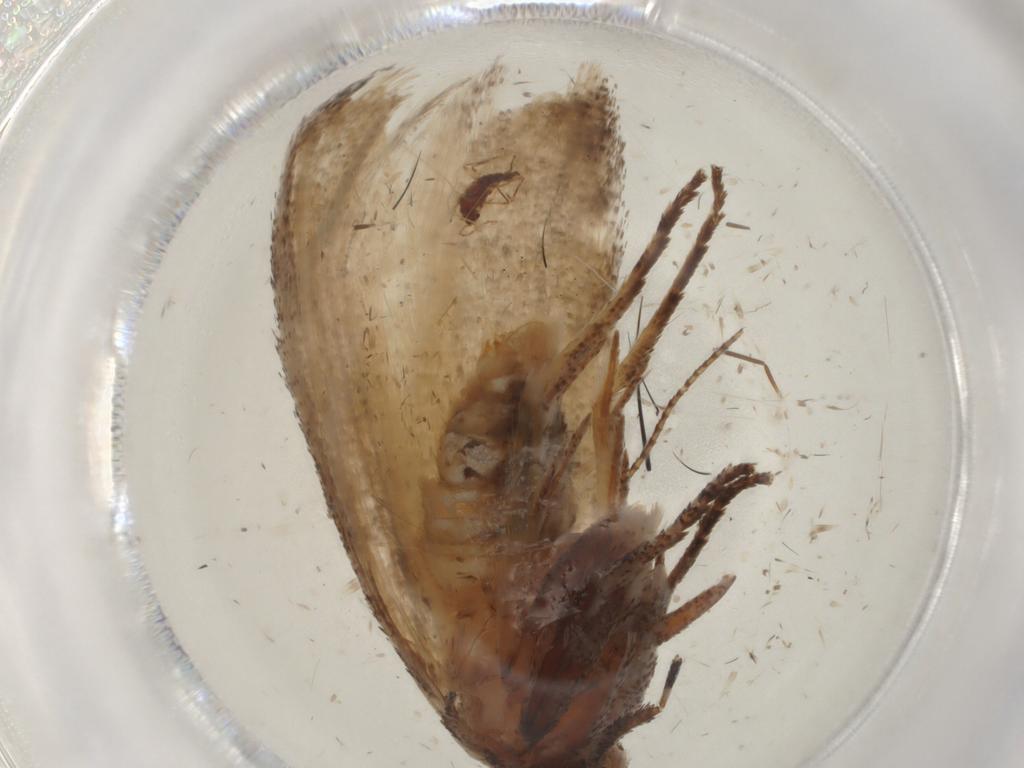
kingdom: Animalia
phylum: Arthropoda
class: Insecta
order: Lepidoptera
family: Cosmopterigidae
